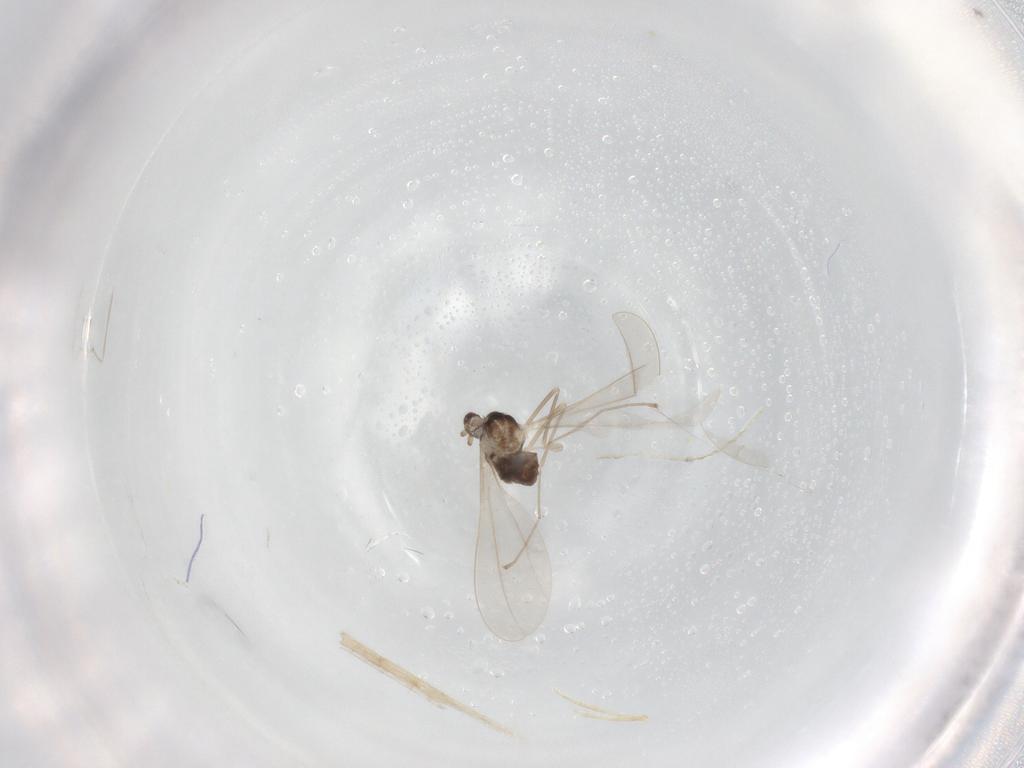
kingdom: Animalia
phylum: Arthropoda
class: Insecta
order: Diptera
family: Cecidomyiidae
